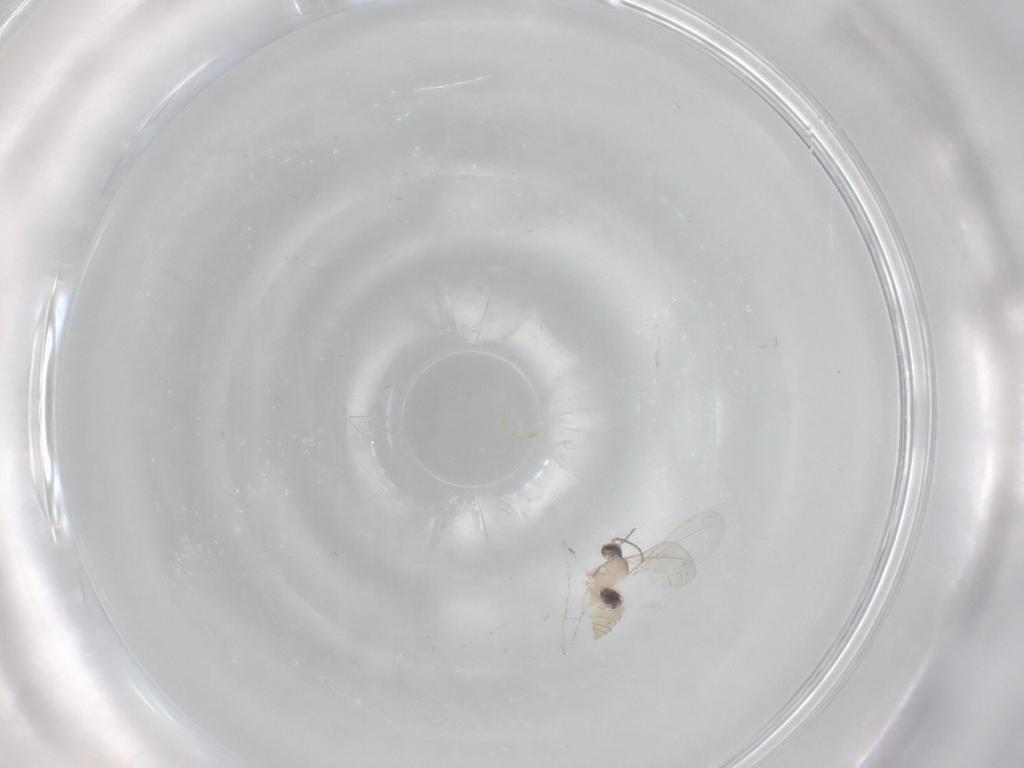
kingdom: Animalia
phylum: Arthropoda
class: Insecta
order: Diptera
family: Cecidomyiidae
